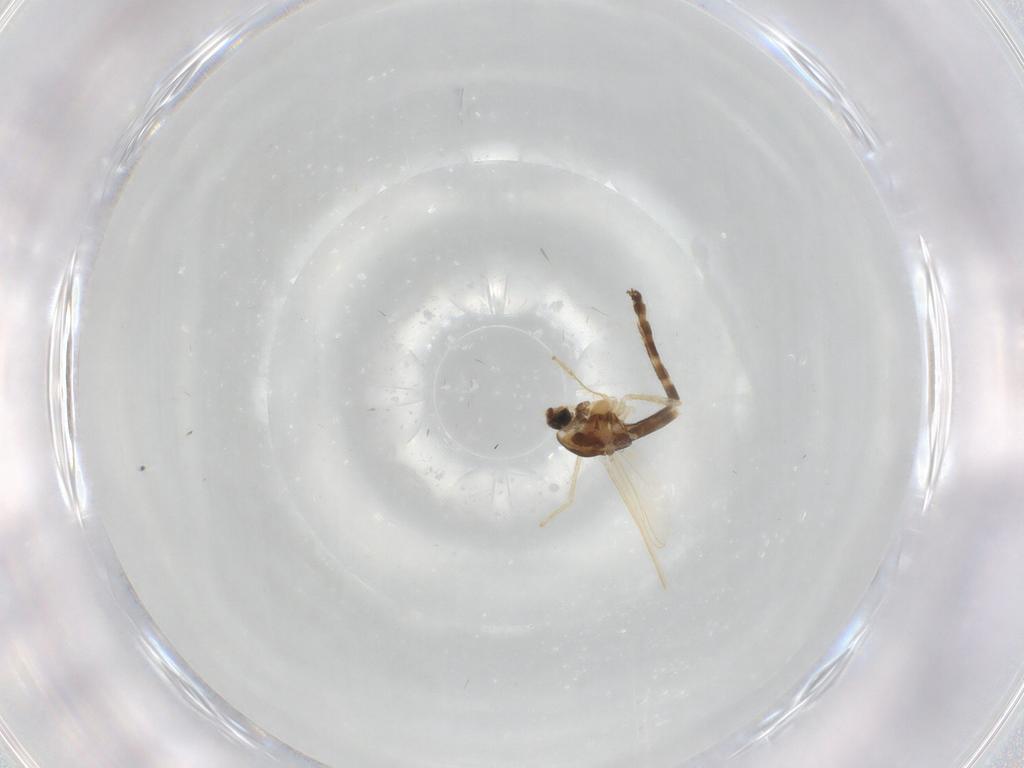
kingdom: Animalia
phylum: Arthropoda
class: Insecta
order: Diptera
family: Chironomidae
